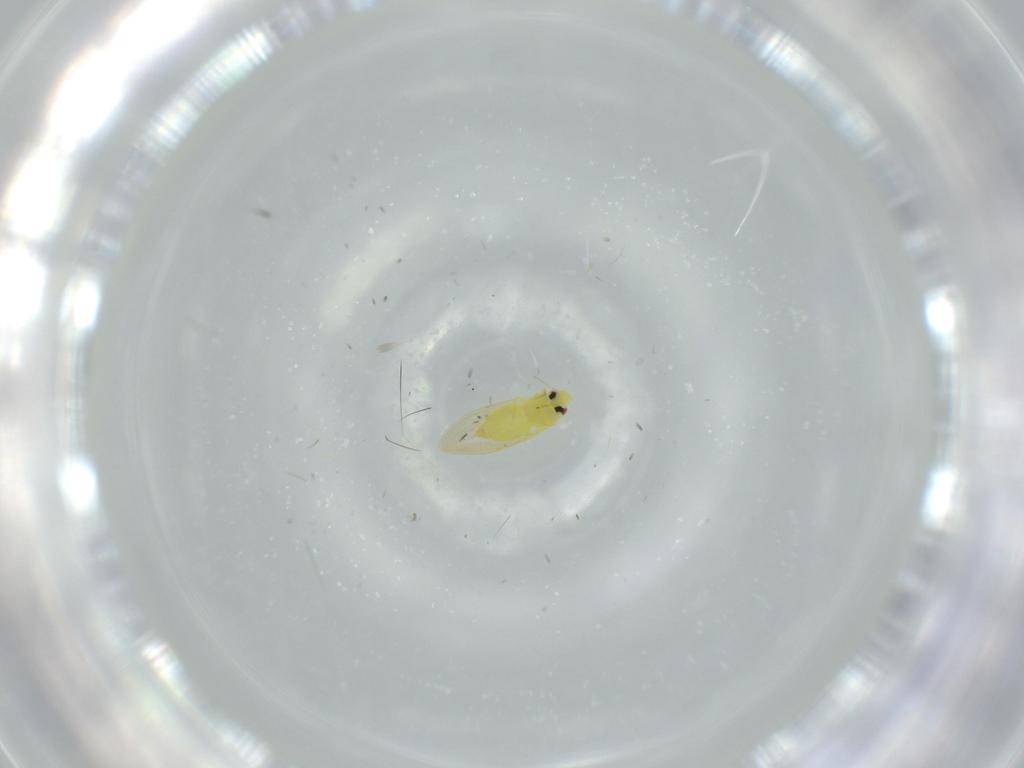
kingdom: Animalia
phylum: Arthropoda
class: Insecta
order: Hemiptera
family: Aleyrodidae
